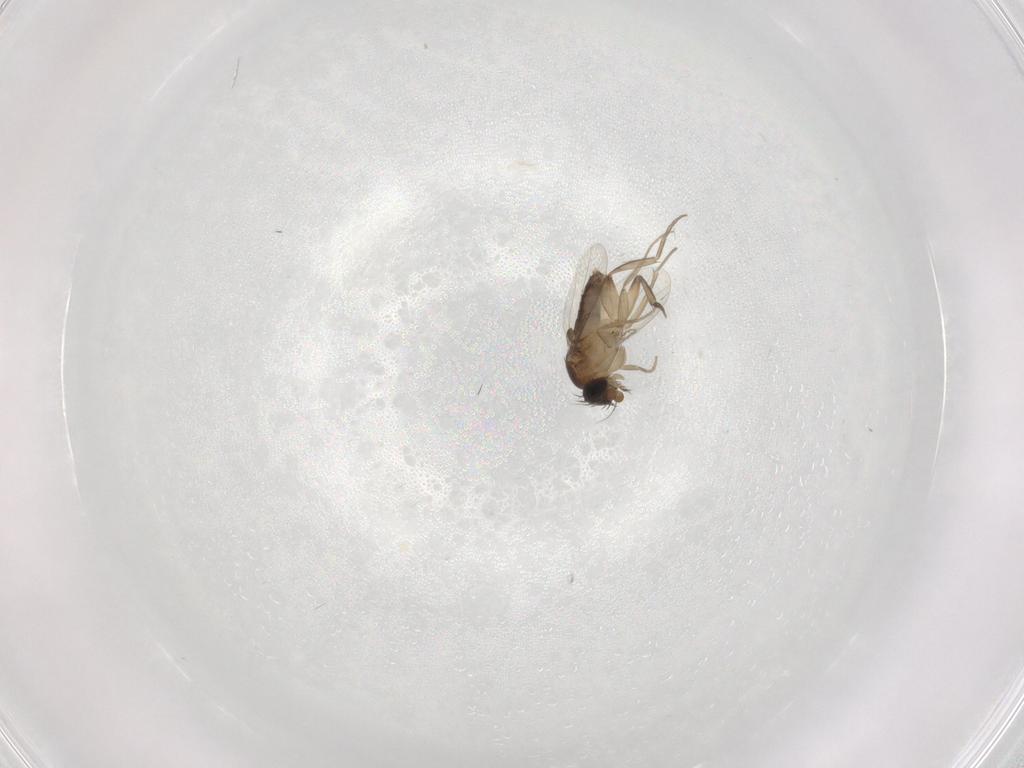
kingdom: Animalia
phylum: Arthropoda
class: Insecta
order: Diptera
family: Phoridae
